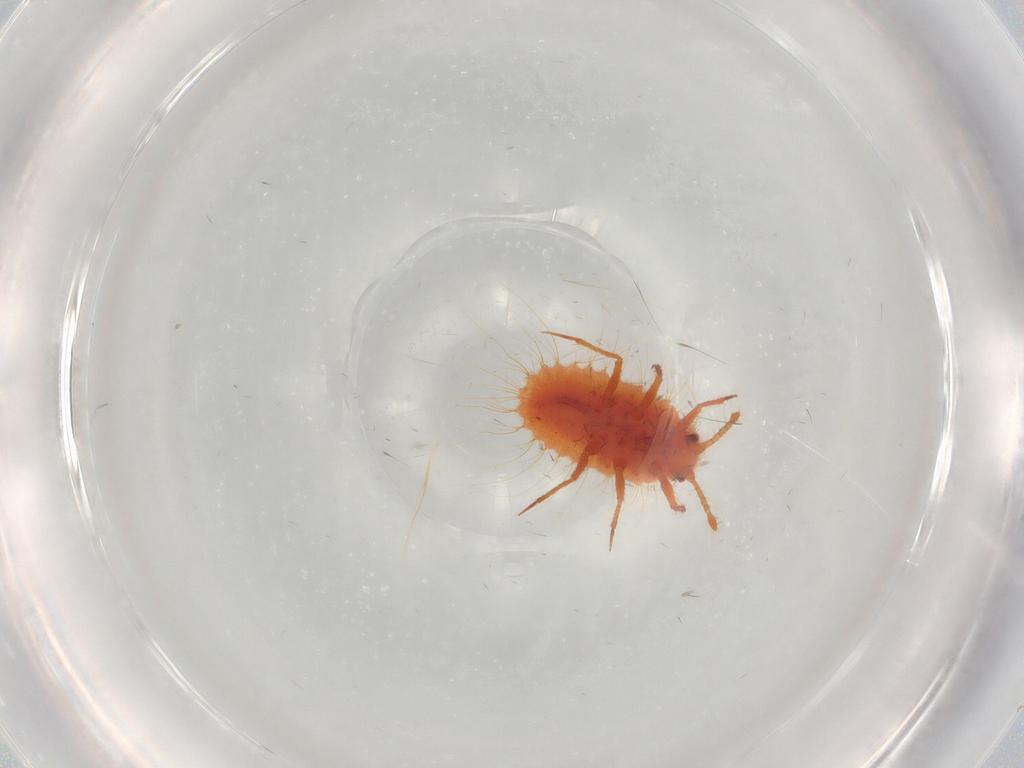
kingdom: Animalia
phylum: Arthropoda
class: Insecta
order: Hemiptera
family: Coccoidea_incertae_sedis
